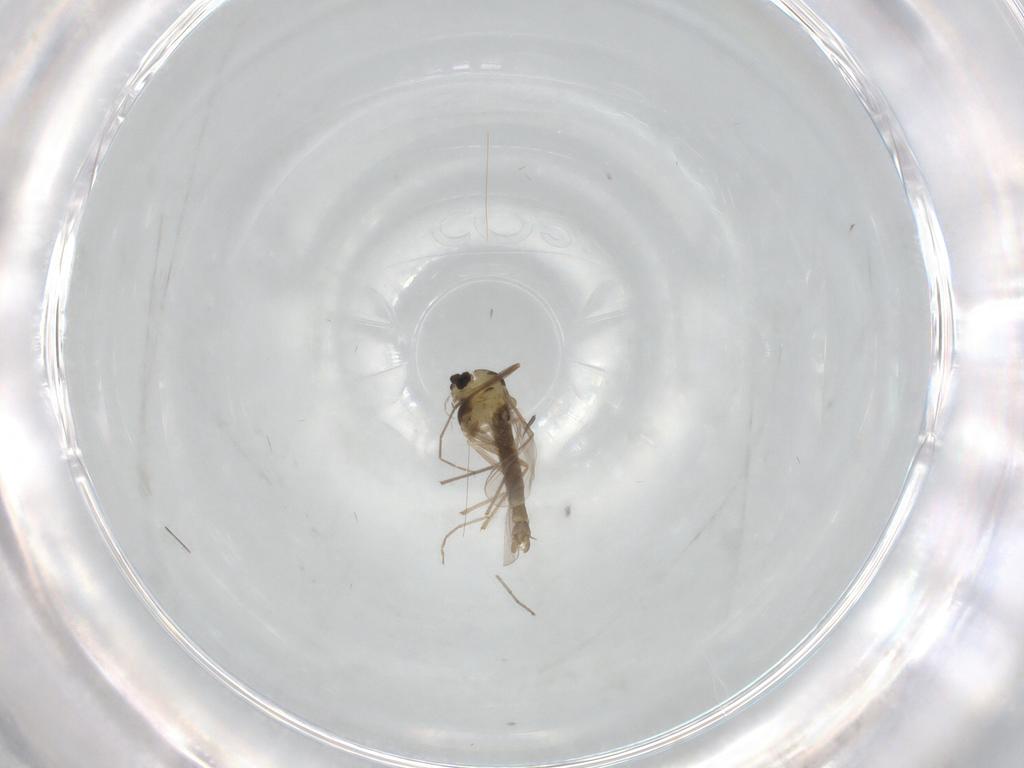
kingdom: Animalia
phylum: Arthropoda
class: Insecta
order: Diptera
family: Chironomidae
